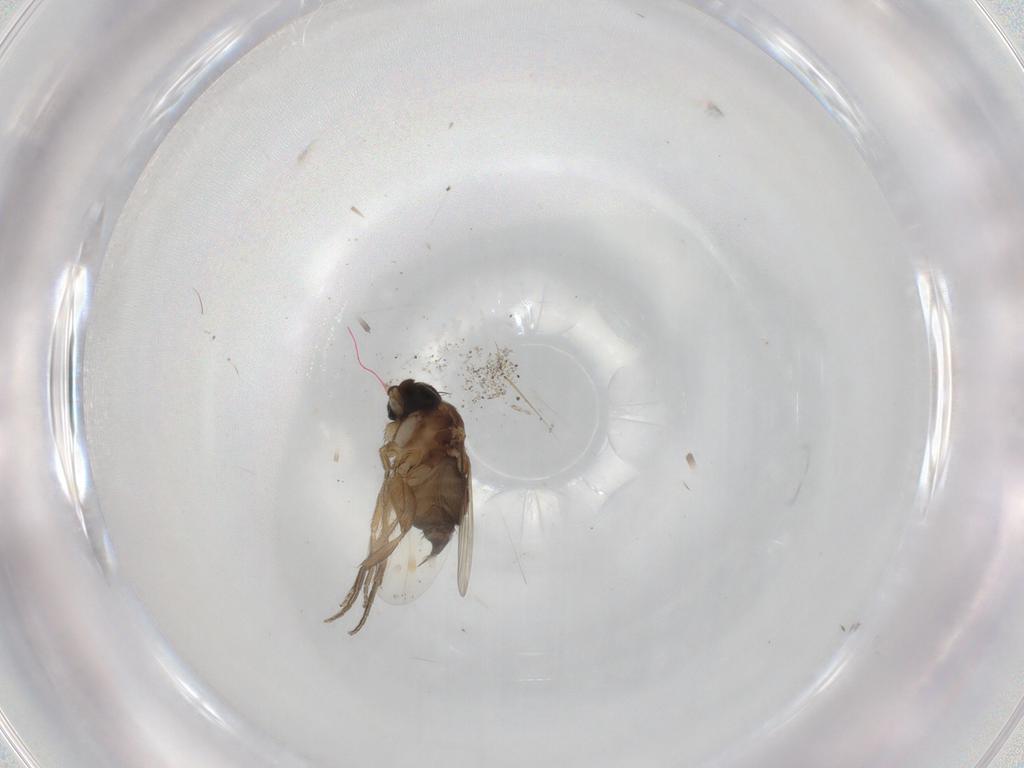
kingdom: Animalia
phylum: Arthropoda
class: Insecta
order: Diptera
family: Phoridae
